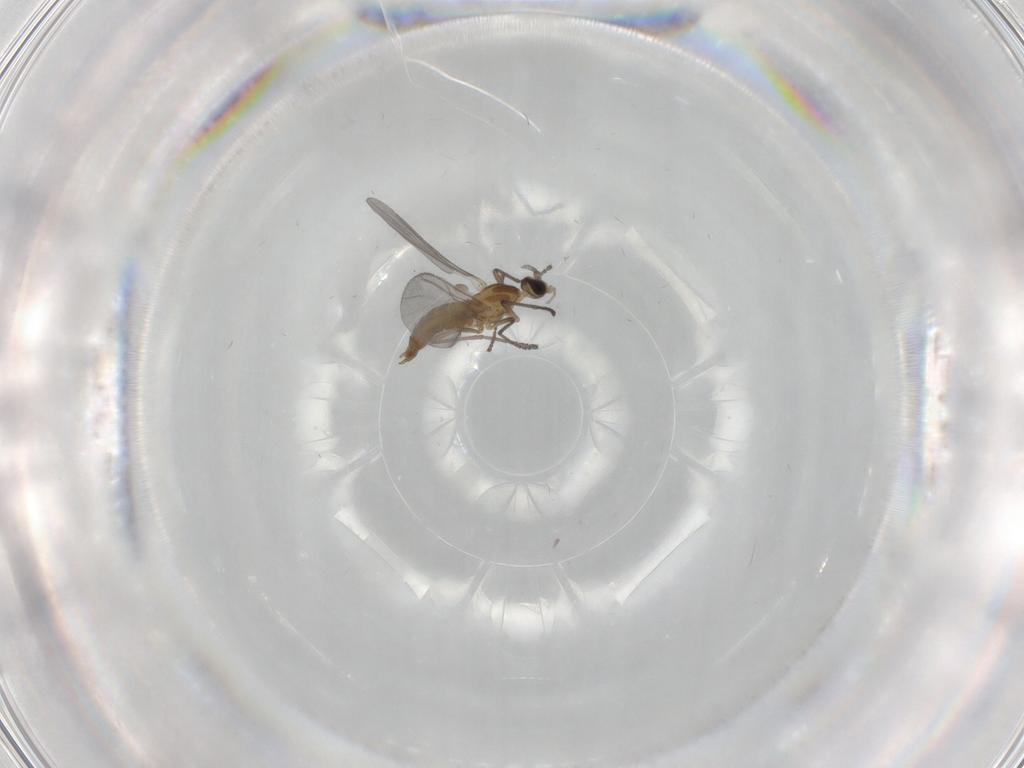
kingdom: Animalia
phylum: Arthropoda
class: Insecta
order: Diptera
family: Cecidomyiidae
